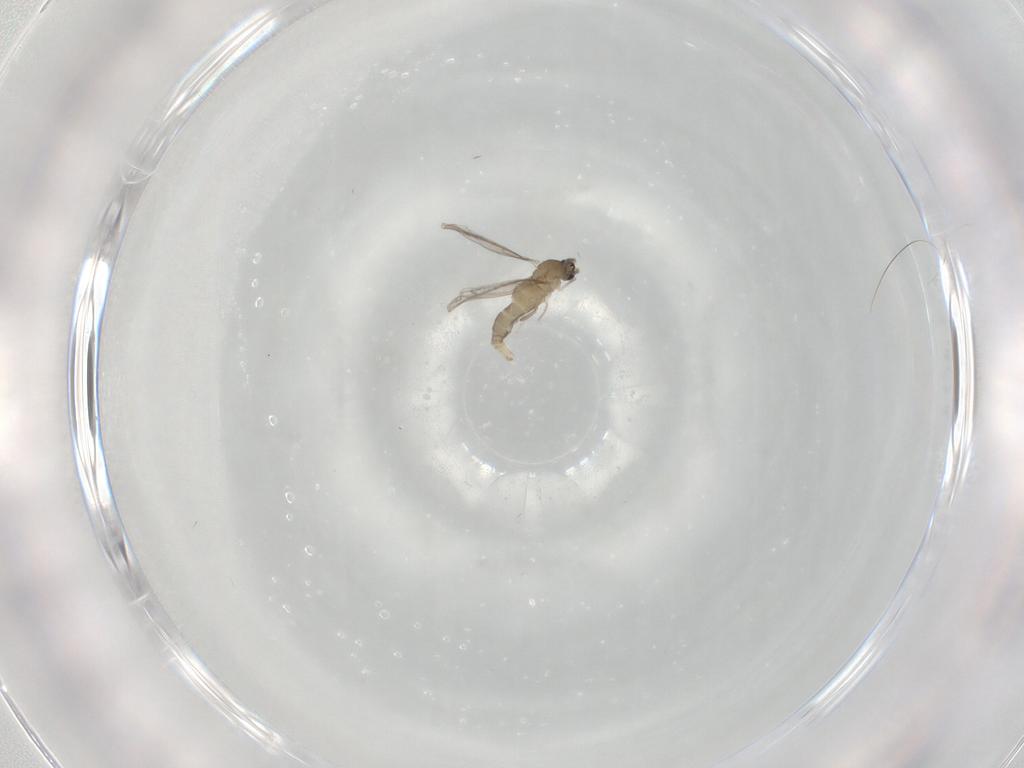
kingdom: Animalia
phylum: Arthropoda
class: Insecta
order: Diptera
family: Cecidomyiidae
